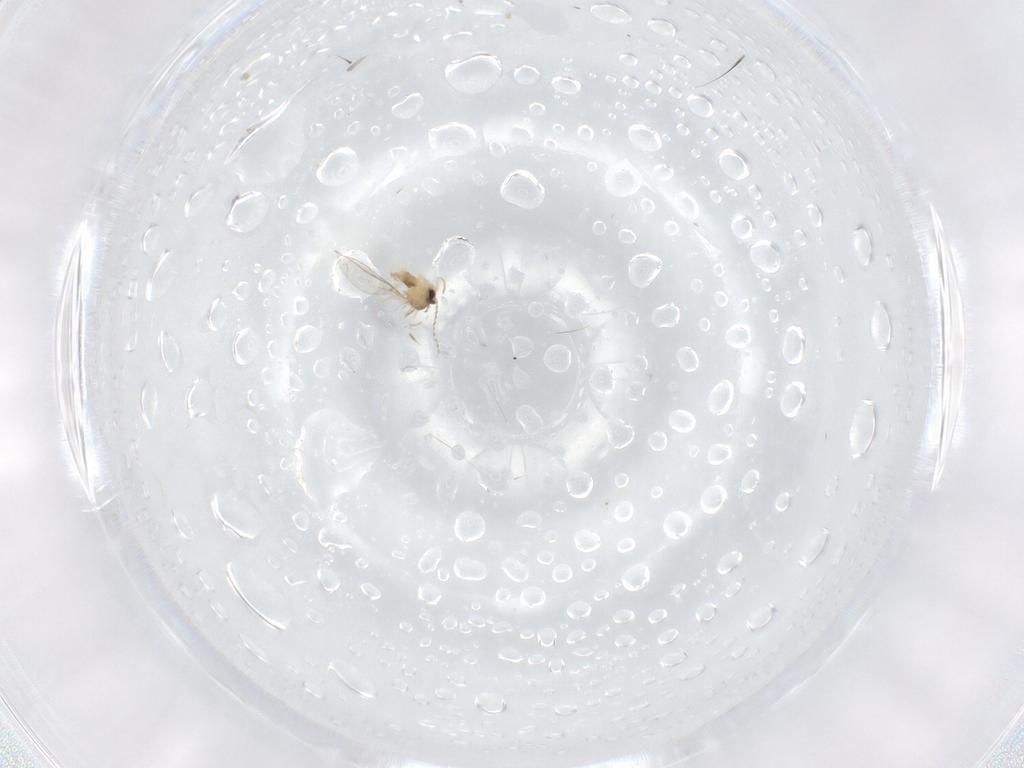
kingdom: Animalia
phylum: Arthropoda
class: Insecta
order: Diptera
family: Cecidomyiidae
